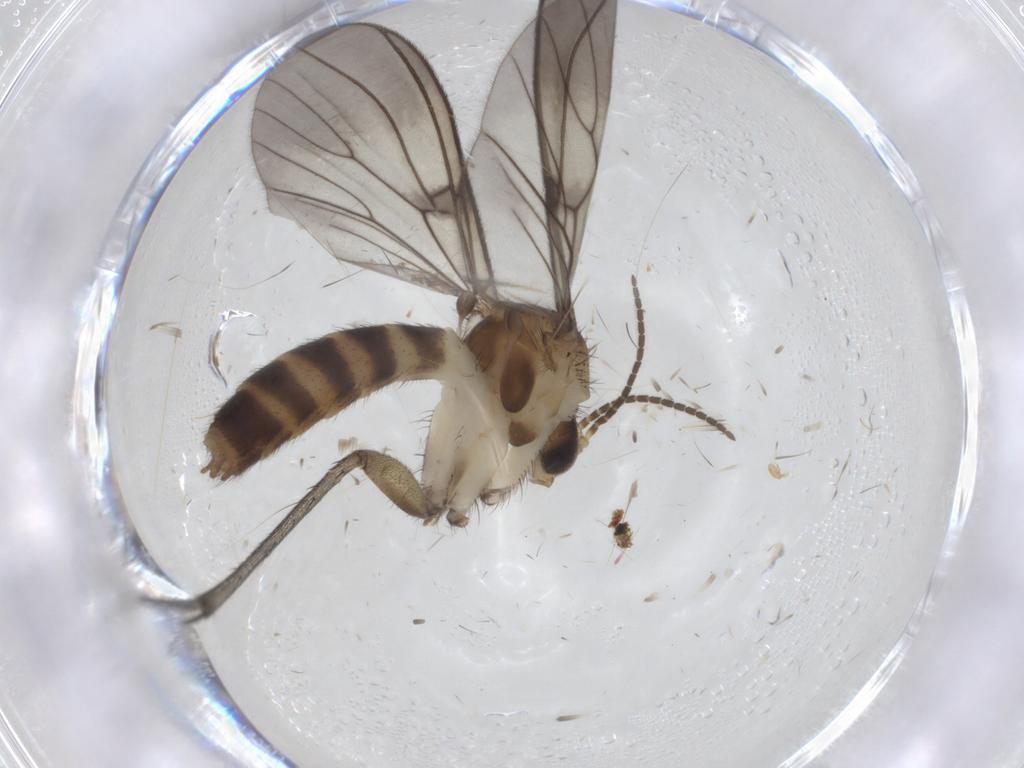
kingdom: Animalia
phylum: Arthropoda
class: Insecta
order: Diptera
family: Mycetophilidae
